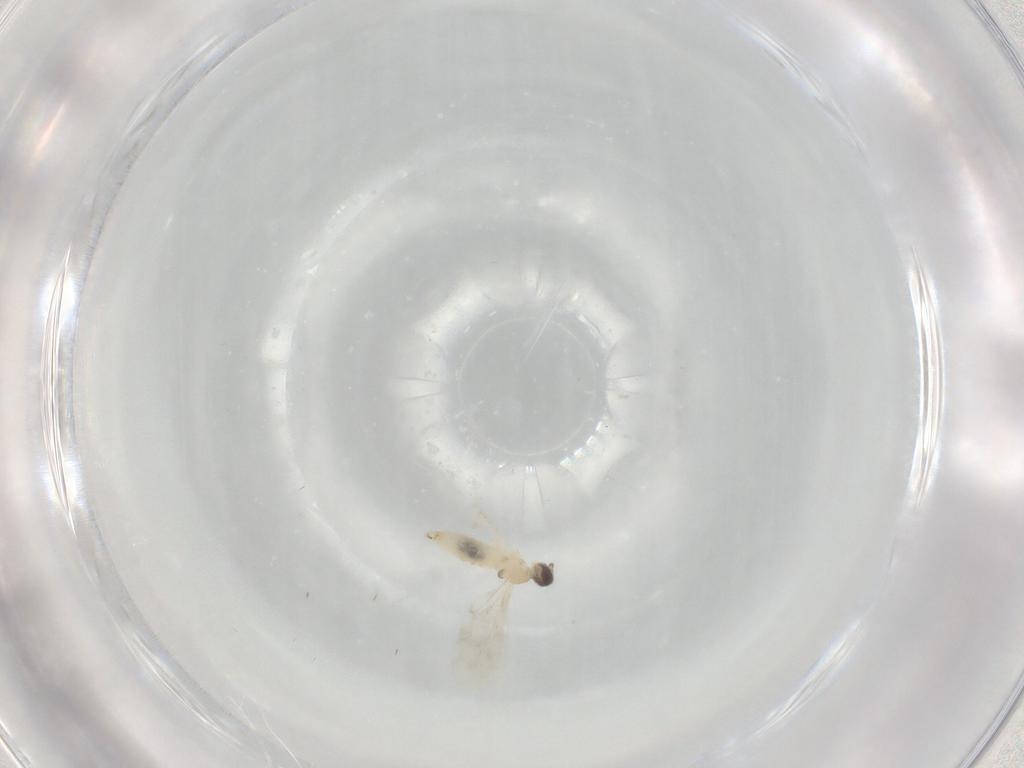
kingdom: Animalia
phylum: Arthropoda
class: Insecta
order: Diptera
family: Cecidomyiidae
